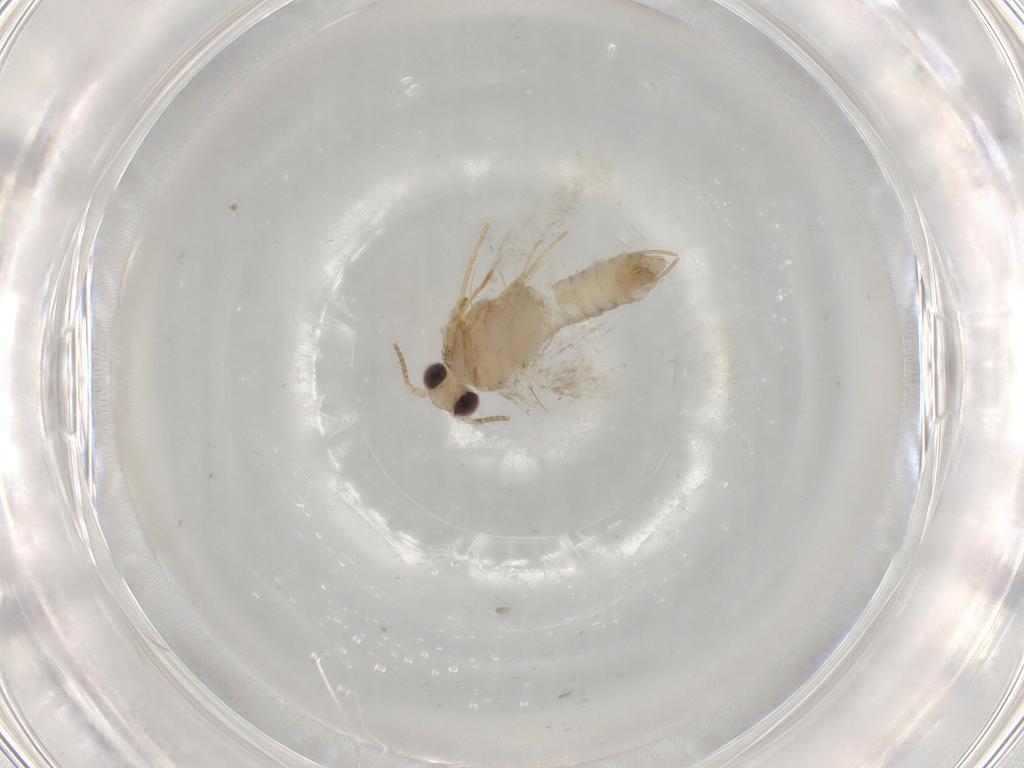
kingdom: Animalia
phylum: Arthropoda
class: Insecta
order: Lepidoptera
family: Psychidae
